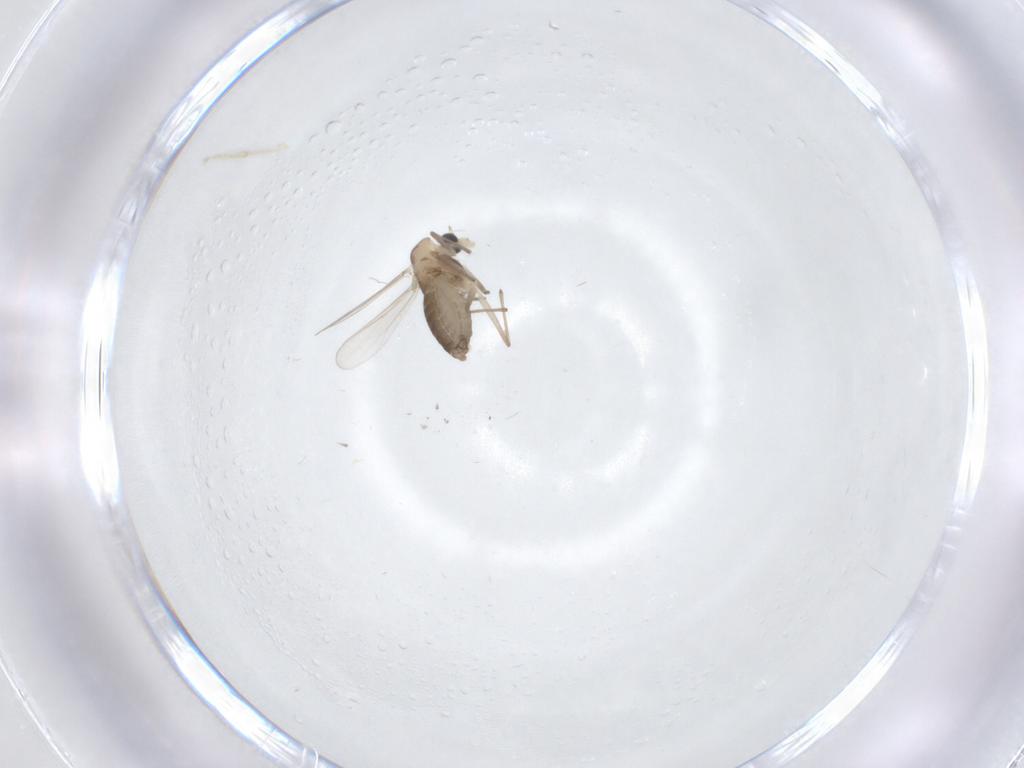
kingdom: Animalia
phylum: Arthropoda
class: Insecta
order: Diptera
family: Chironomidae
